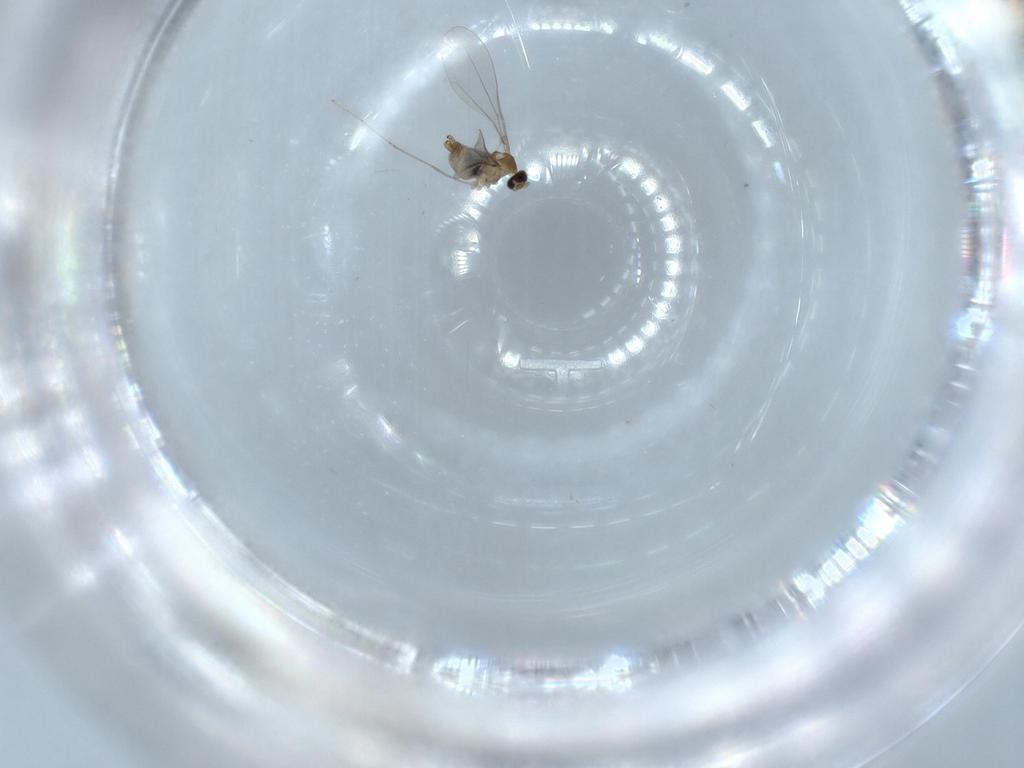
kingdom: Animalia
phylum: Arthropoda
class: Insecta
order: Diptera
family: Cecidomyiidae
